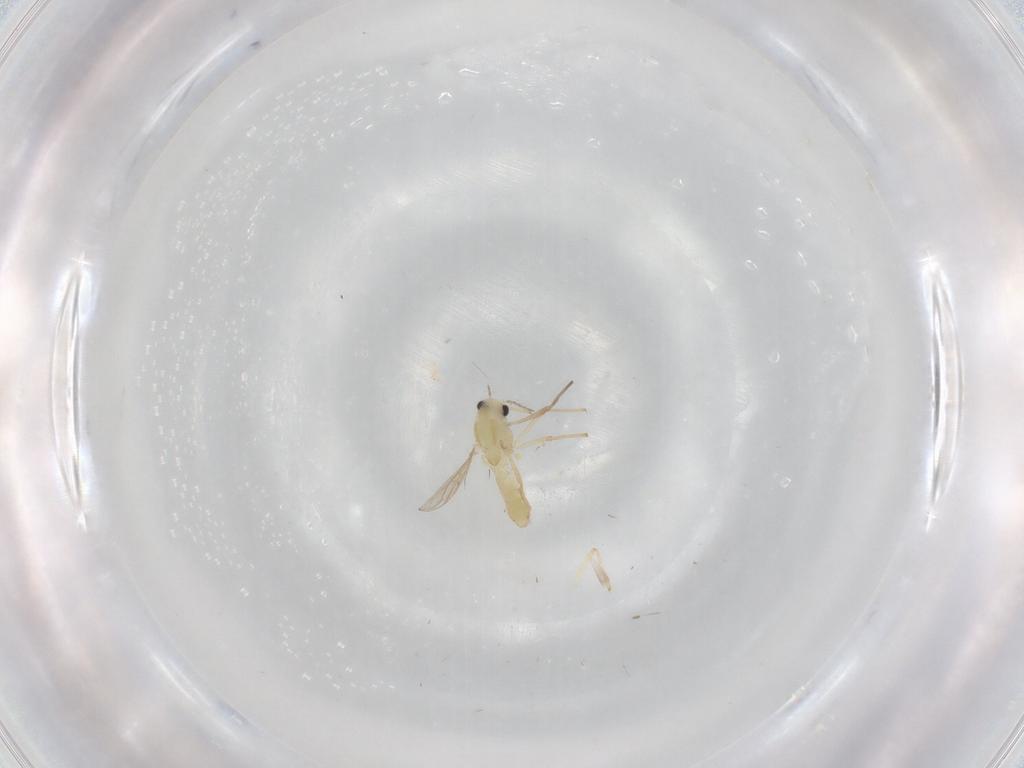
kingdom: Animalia
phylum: Arthropoda
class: Insecta
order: Diptera
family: Chironomidae
